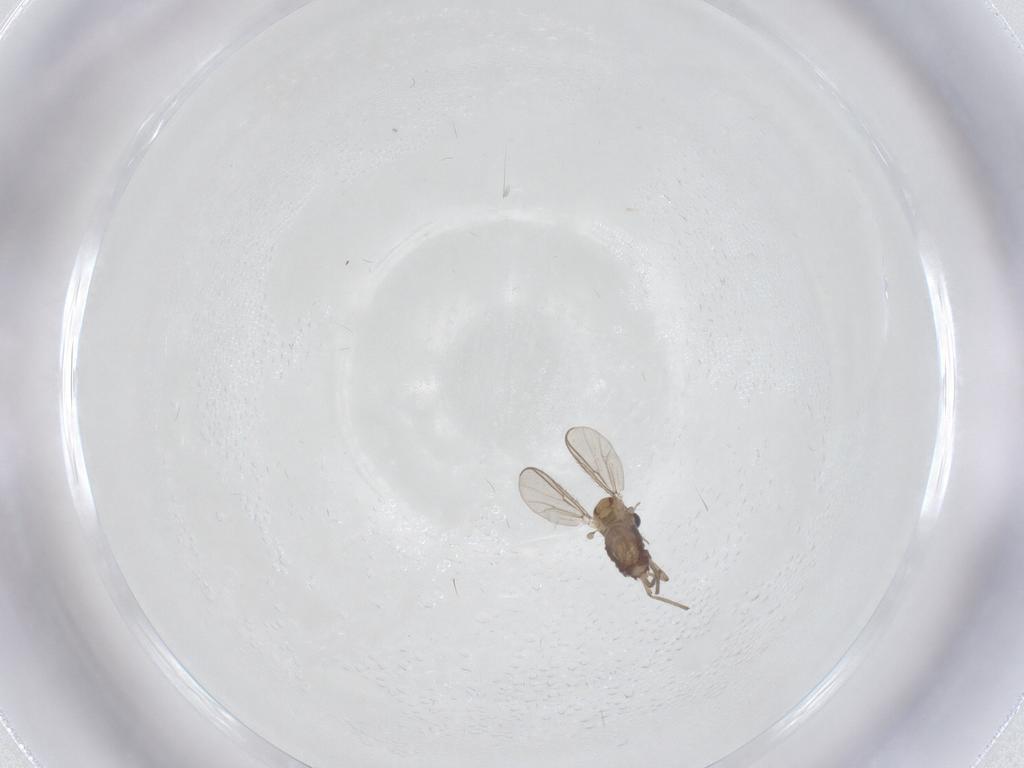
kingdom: Animalia
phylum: Arthropoda
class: Insecta
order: Diptera
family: Chironomidae
